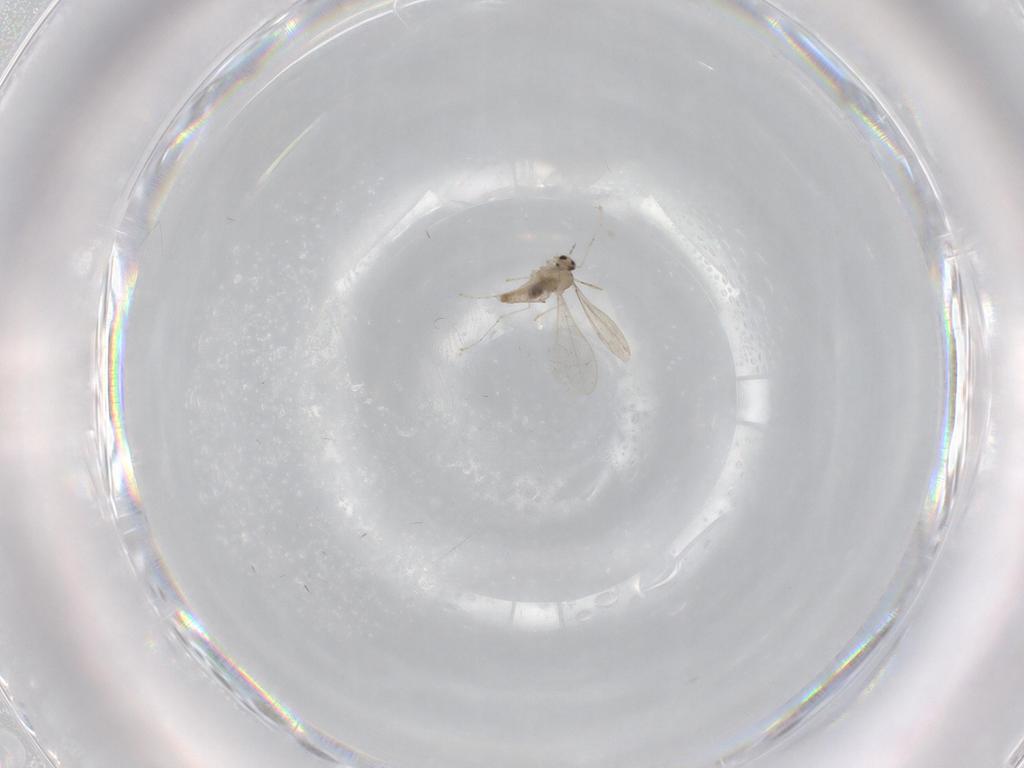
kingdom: Animalia
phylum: Arthropoda
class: Insecta
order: Diptera
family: Cecidomyiidae
